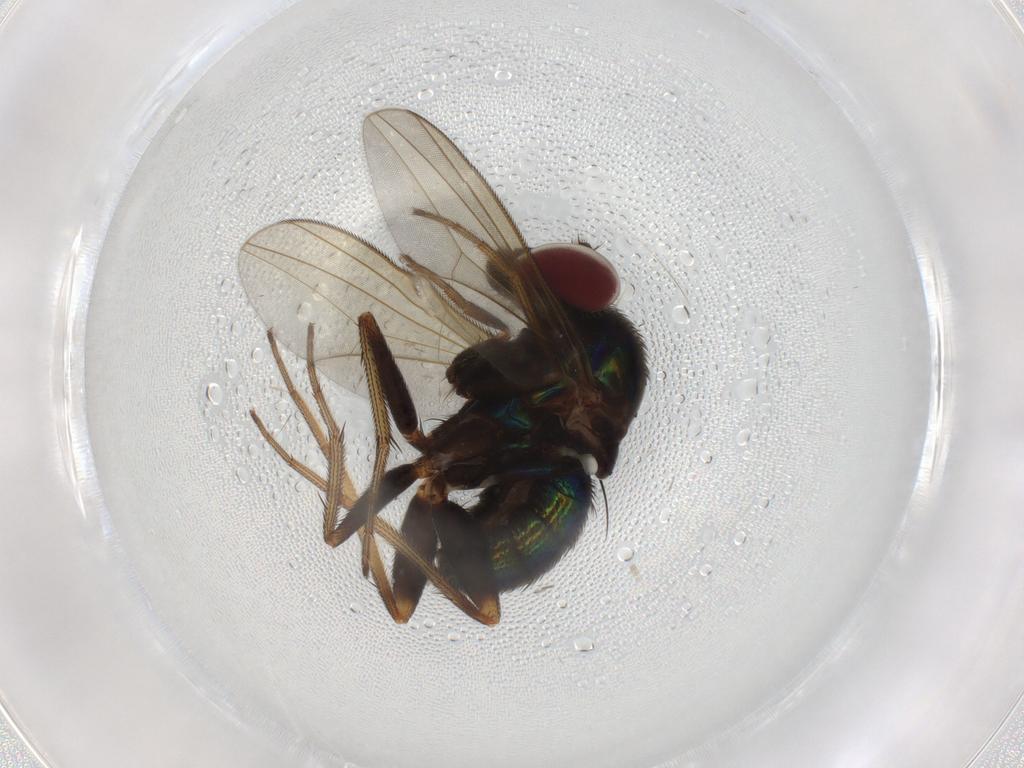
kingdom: Animalia
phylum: Arthropoda
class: Insecta
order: Diptera
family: Dolichopodidae
